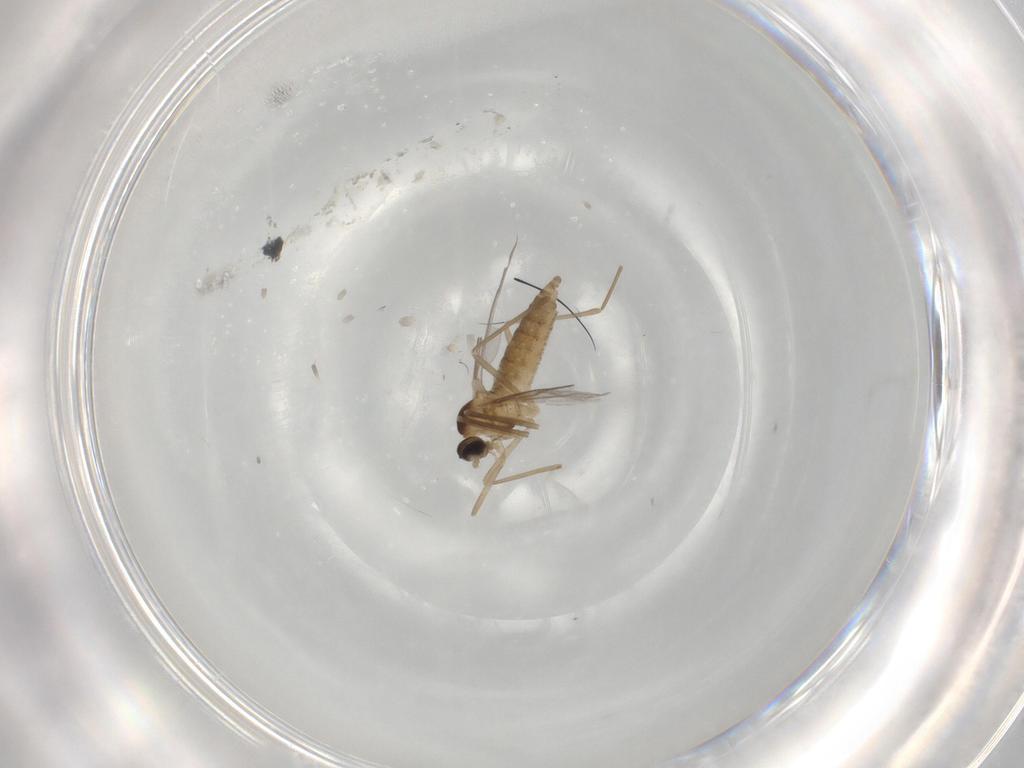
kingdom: Animalia
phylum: Arthropoda
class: Insecta
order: Diptera
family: Cecidomyiidae
